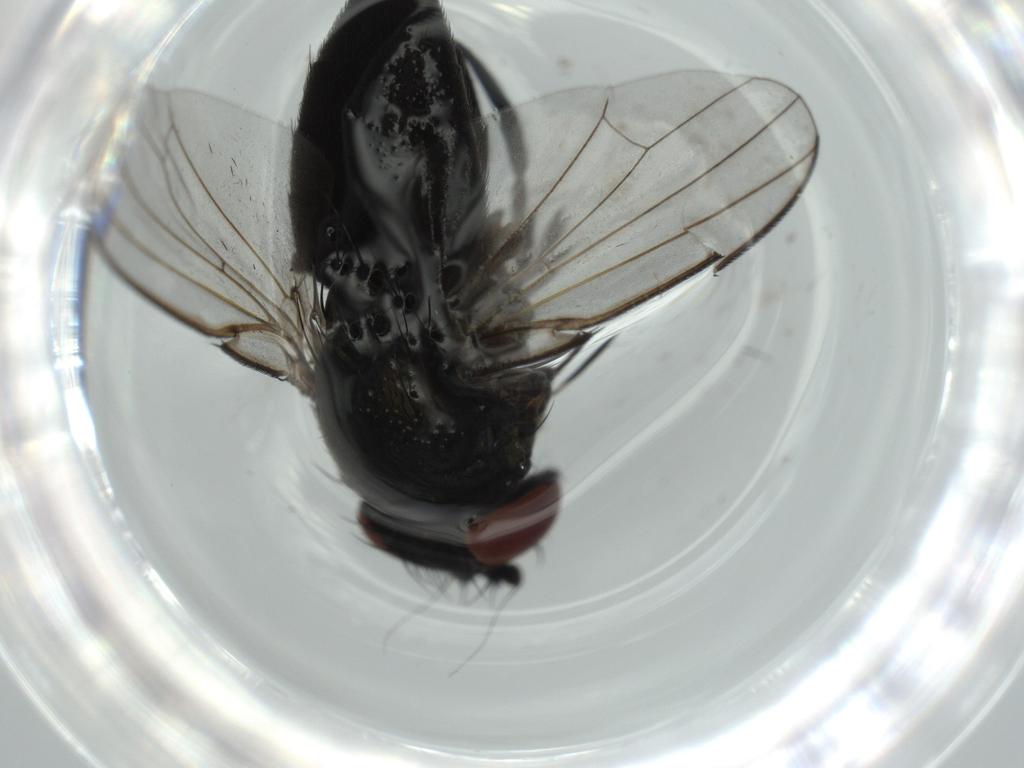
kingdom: Animalia
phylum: Arthropoda
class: Insecta
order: Diptera
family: Milichiidae
